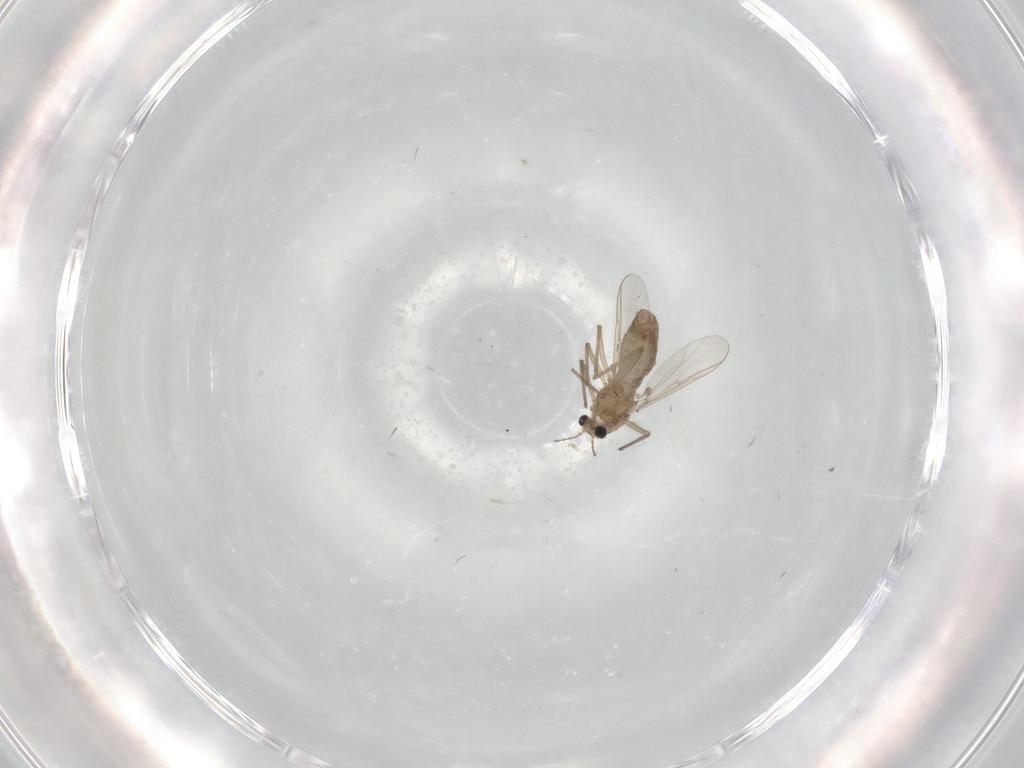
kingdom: Animalia
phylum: Arthropoda
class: Insecta
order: Diptera
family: Chironomidae
